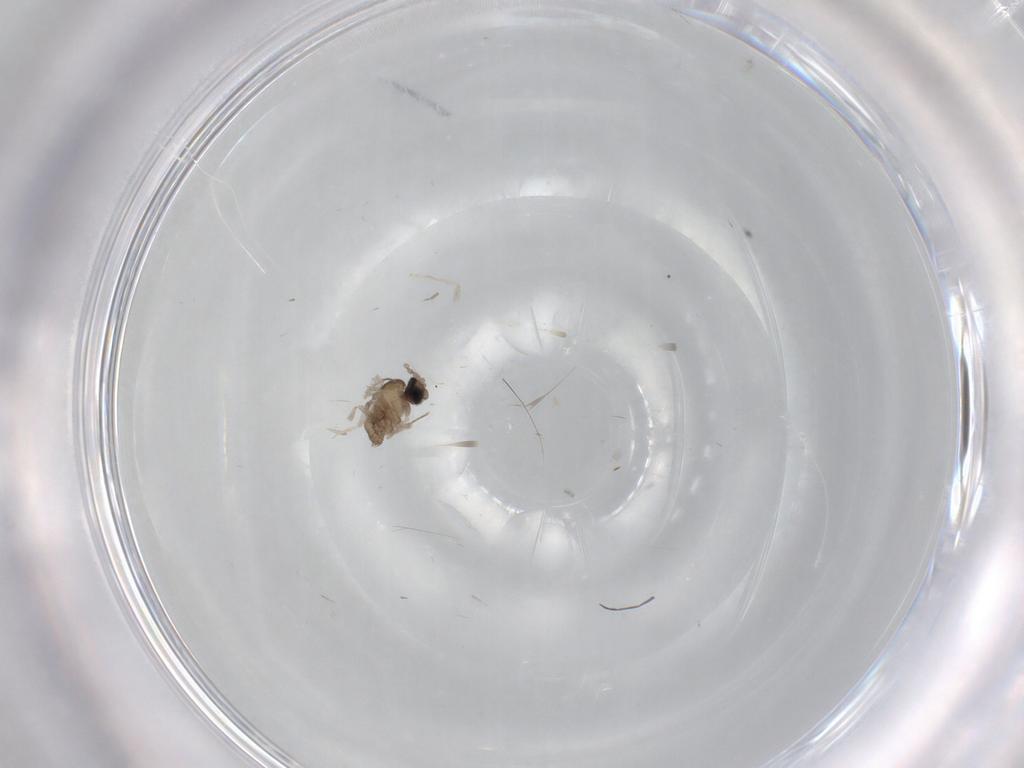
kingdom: Animalia
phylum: Arthropoda
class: Insecta
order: Diptera
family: Cecidomyiidae
